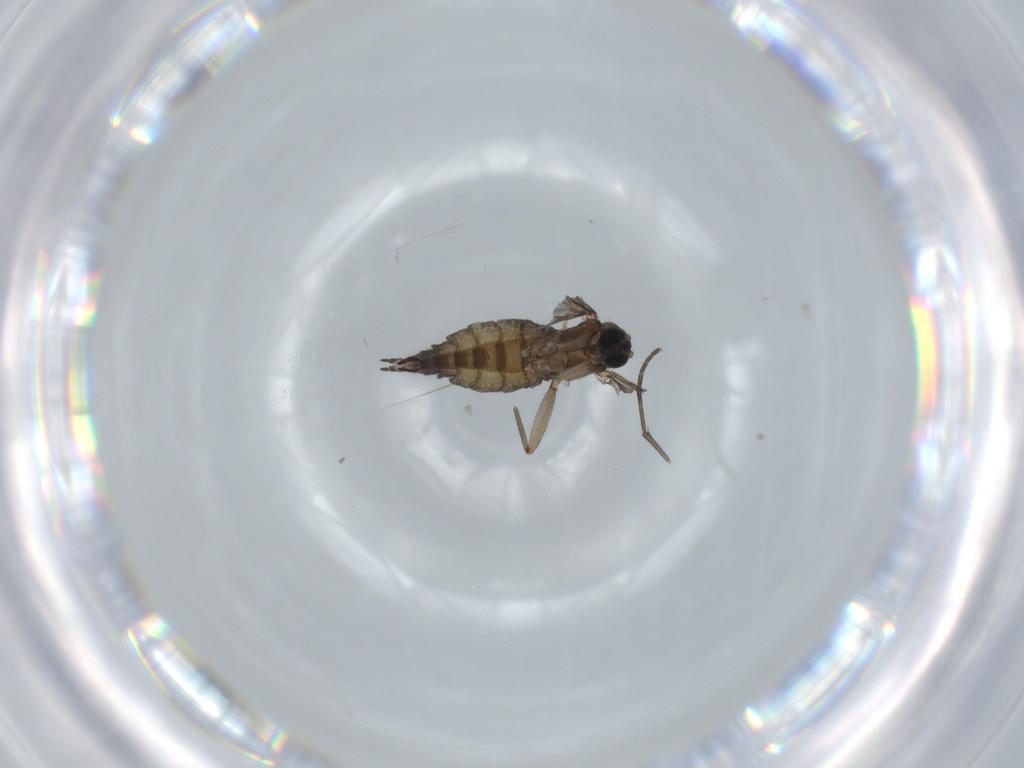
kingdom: Animalia
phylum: Arthropoda
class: Insecta
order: Diptera
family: Sciaridae
